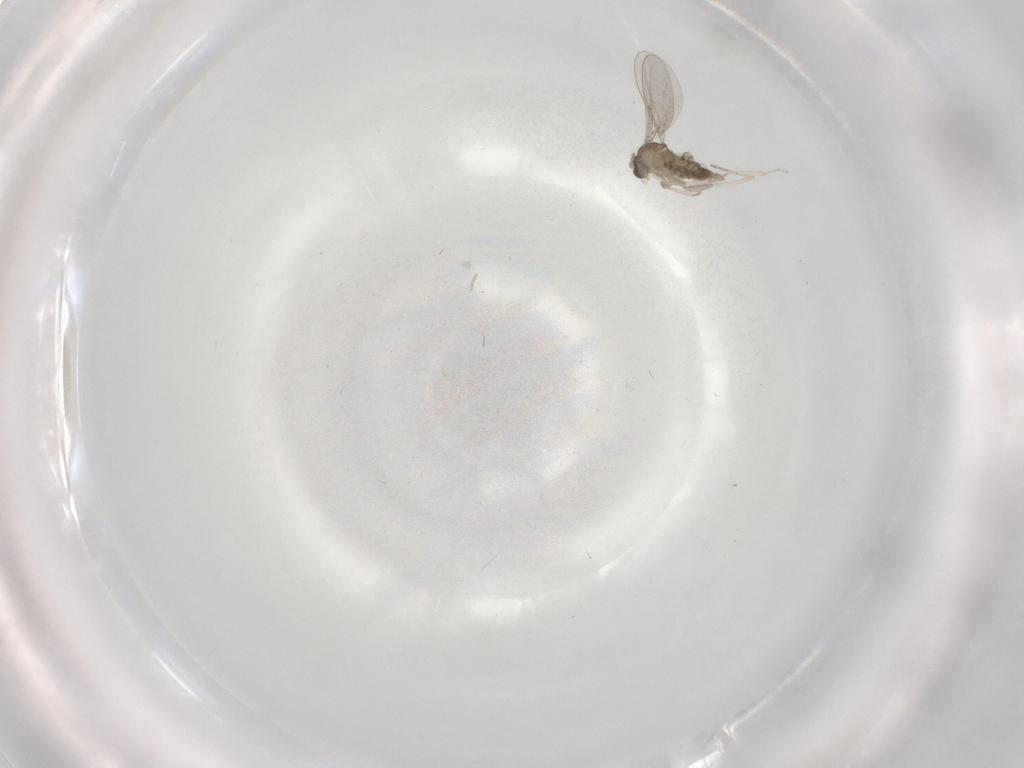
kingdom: Animalia
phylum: Arthropoda
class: Insecta
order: Diptera
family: Cecidomyiidae
